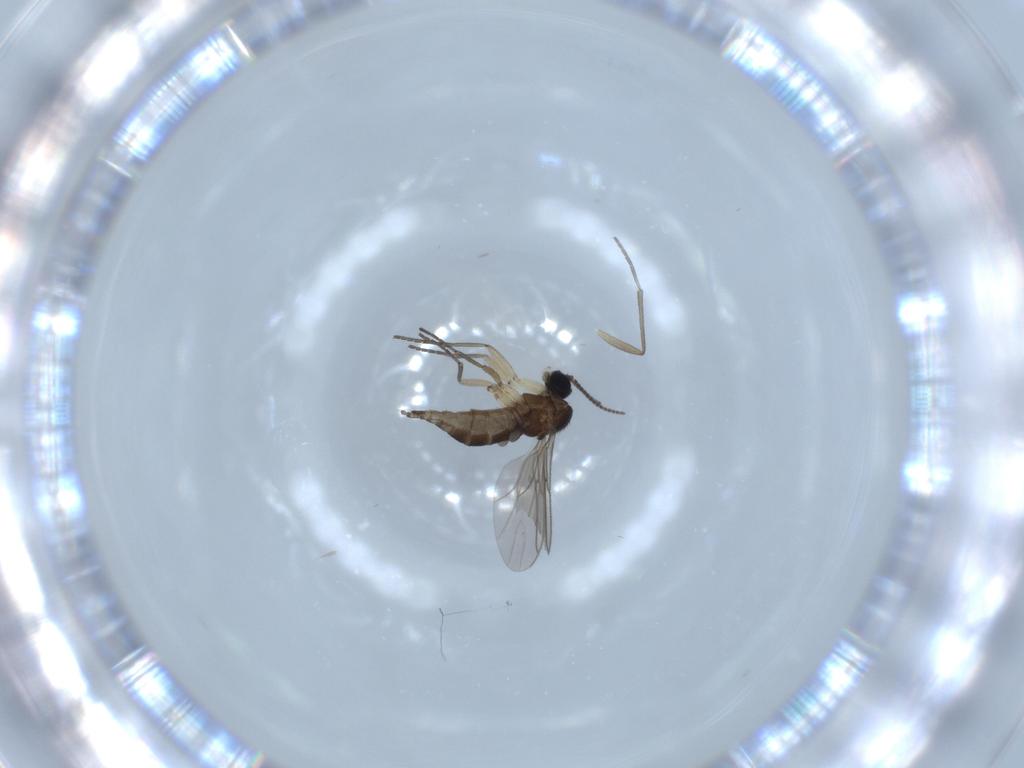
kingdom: Animalia
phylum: Arthropoda
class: Insecta
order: Diptera
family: Sciaridae
